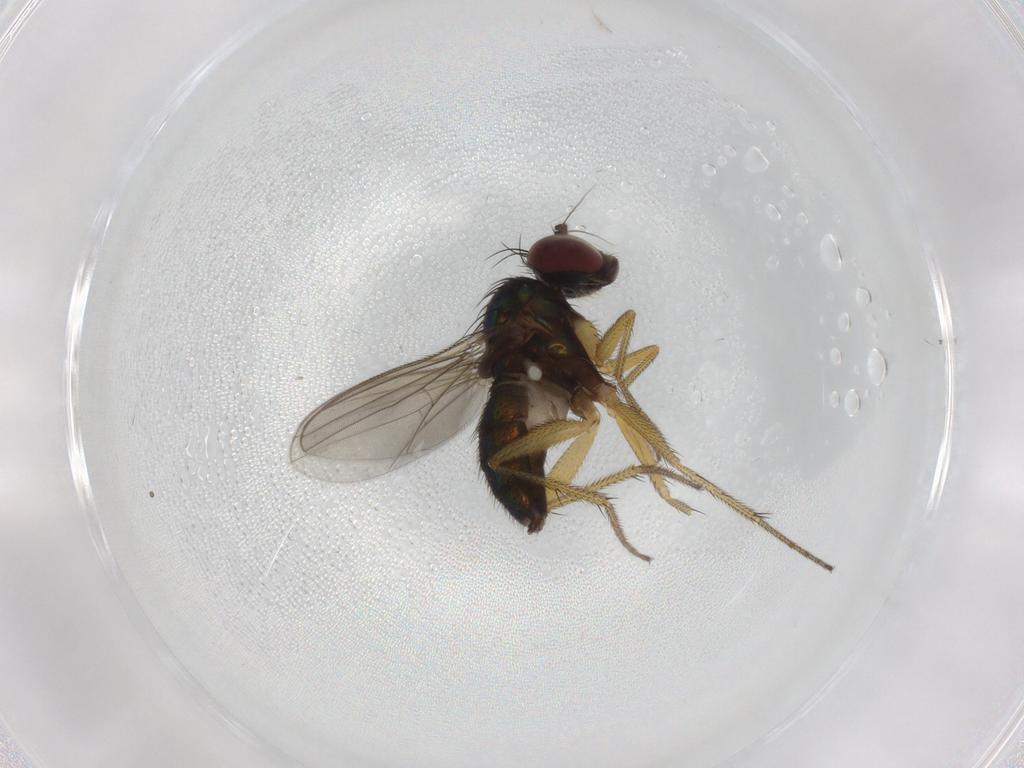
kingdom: Animalia
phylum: Arthropoda
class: Insecta
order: Diptera
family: Dolichopodidae
